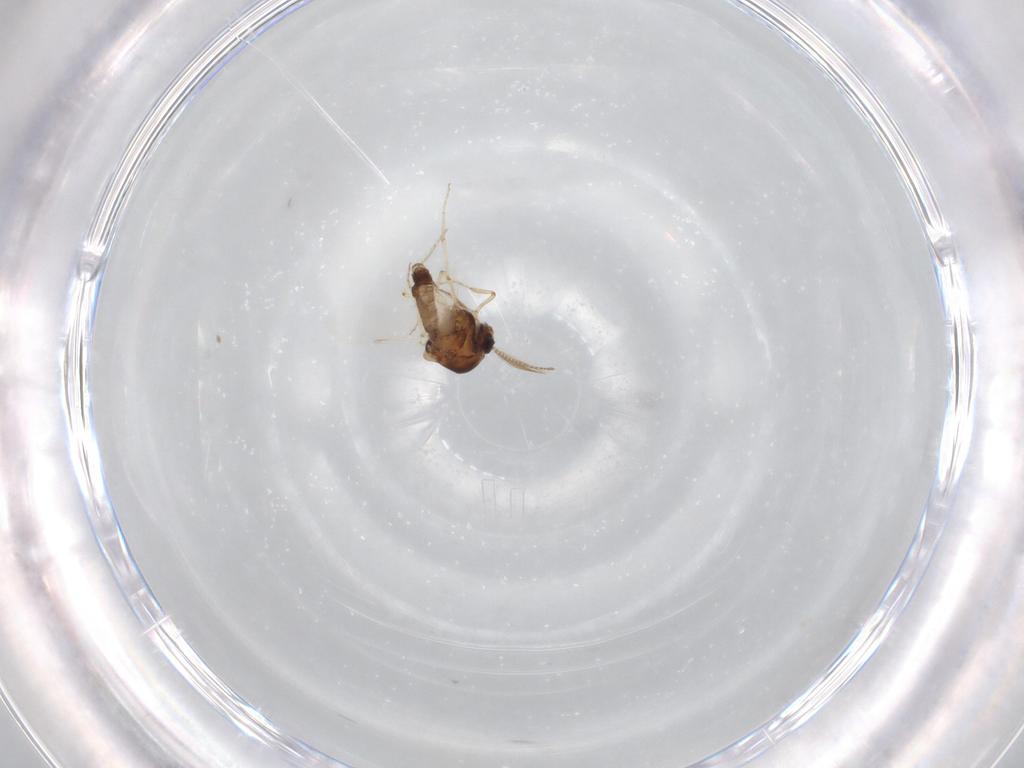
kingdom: Animalia
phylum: Arthropoda
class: Insecta
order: Diptera
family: Ceratopogonidae
